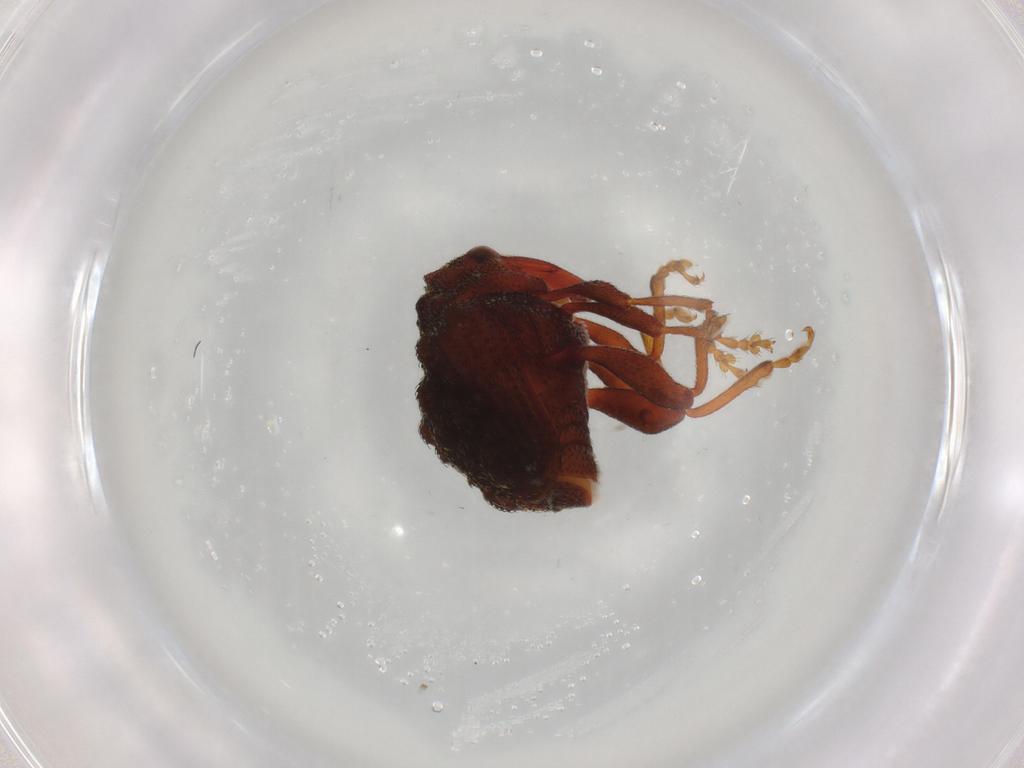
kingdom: Animalia
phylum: Arthropoda
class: Insecta
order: Coleoptera
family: Curculionidae
